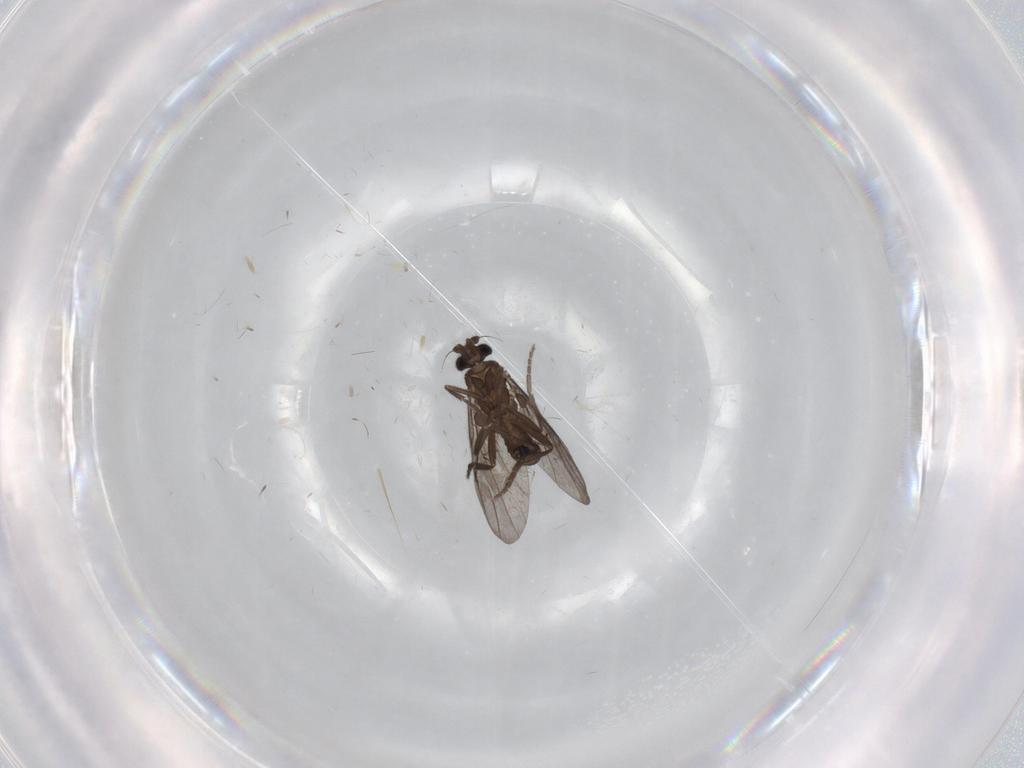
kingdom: Animalia
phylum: Arthropoda
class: Insecta
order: Diptera
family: Phoridae
